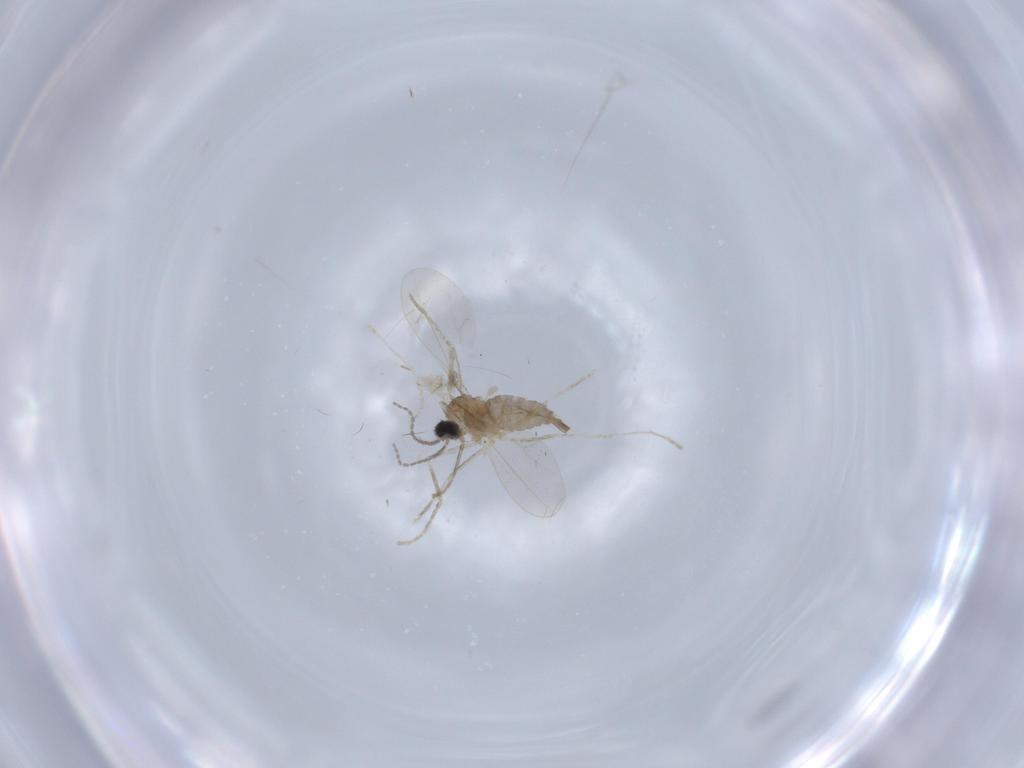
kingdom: Animalia
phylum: Arthropoda
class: Insecta
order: Diptera
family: Cecidomyiidae
